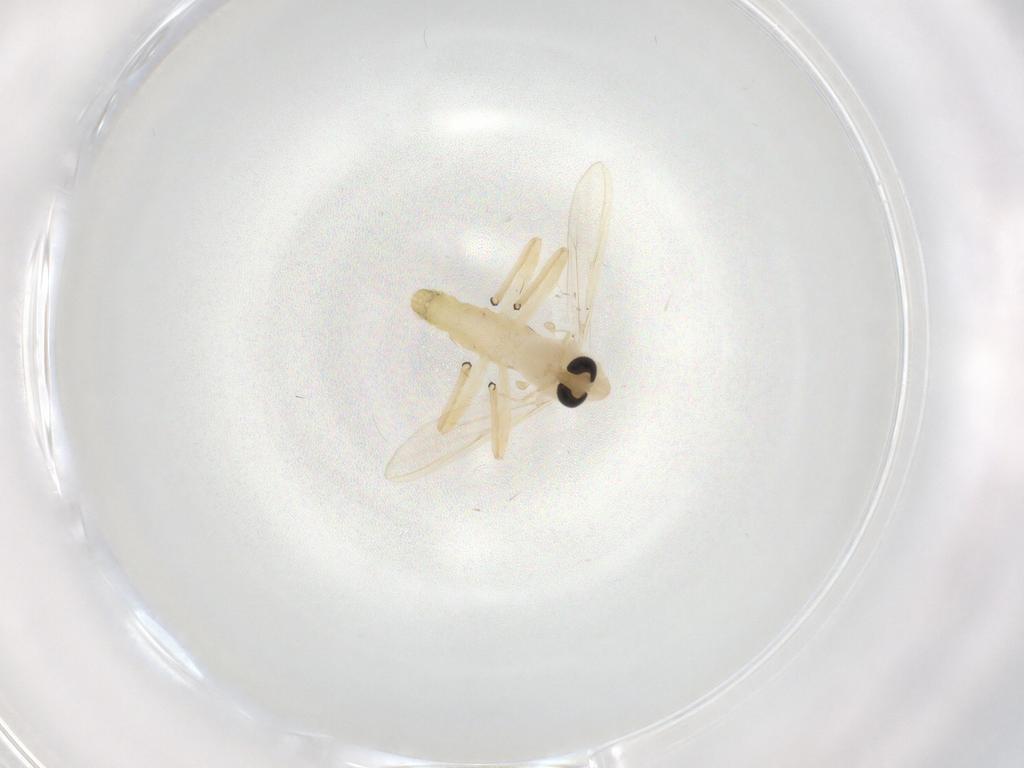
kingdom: Animalia
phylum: Arthropoda
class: Insecta
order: Diptera
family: Chironomidae
